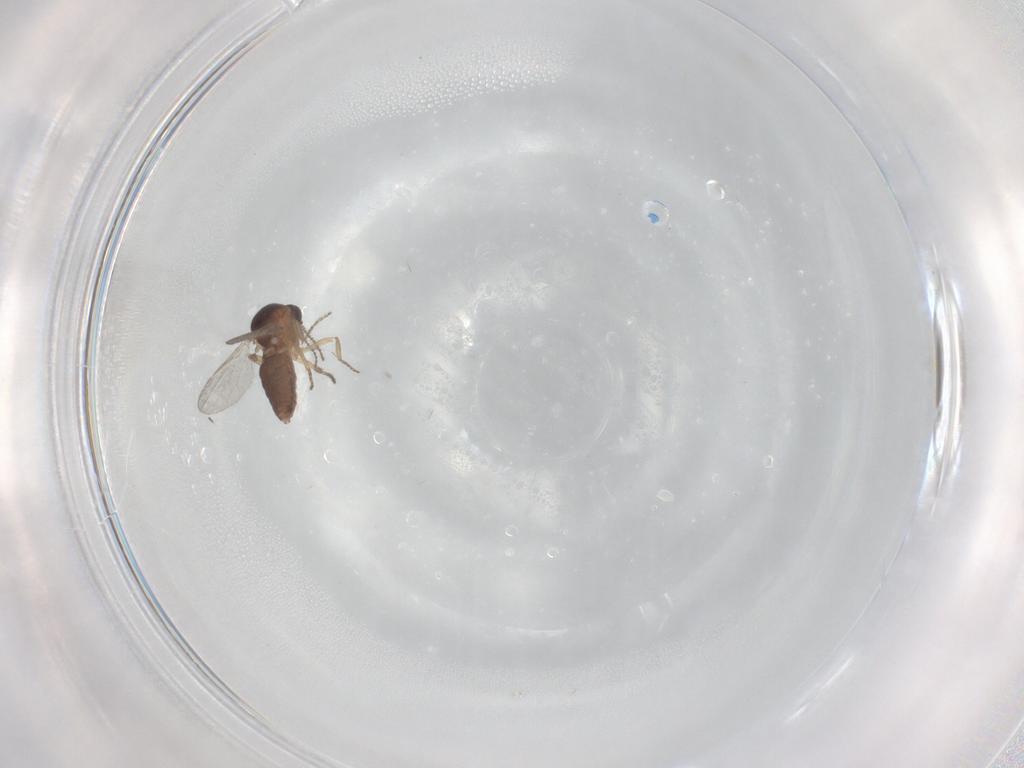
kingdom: Animalia
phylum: Arthropoda
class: Insecta
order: Diptera
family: Ceratopogonidae
